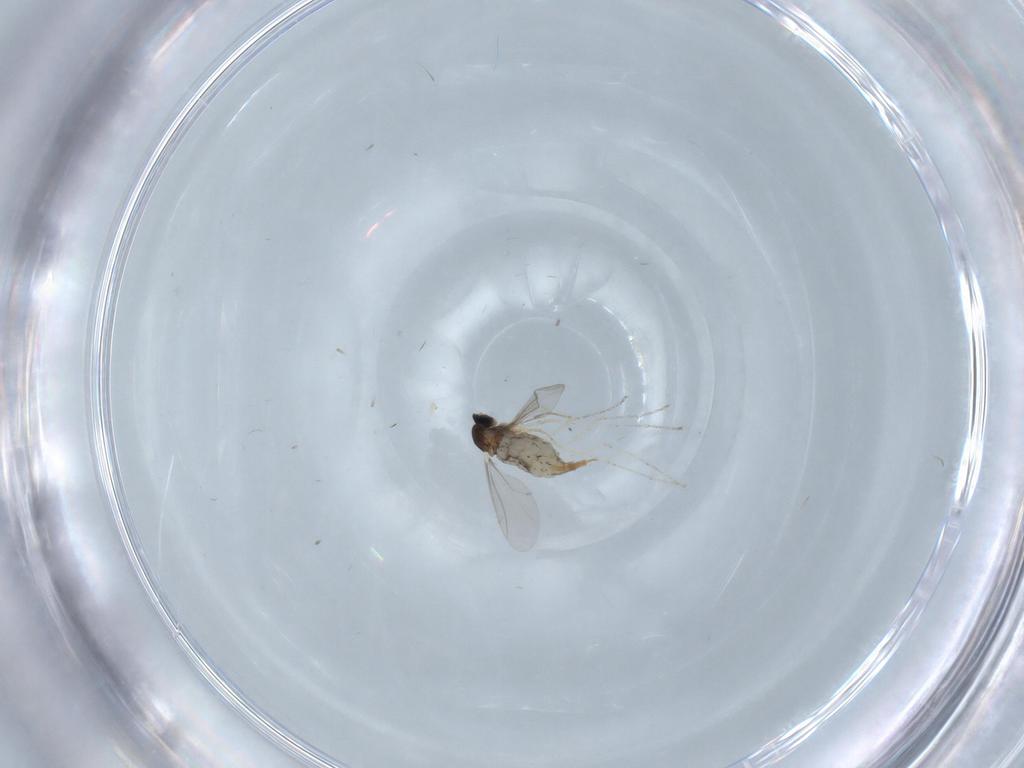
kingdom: Animalia
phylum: Arthropoda
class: Insecta
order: Diptera
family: Cecidomyiidae
